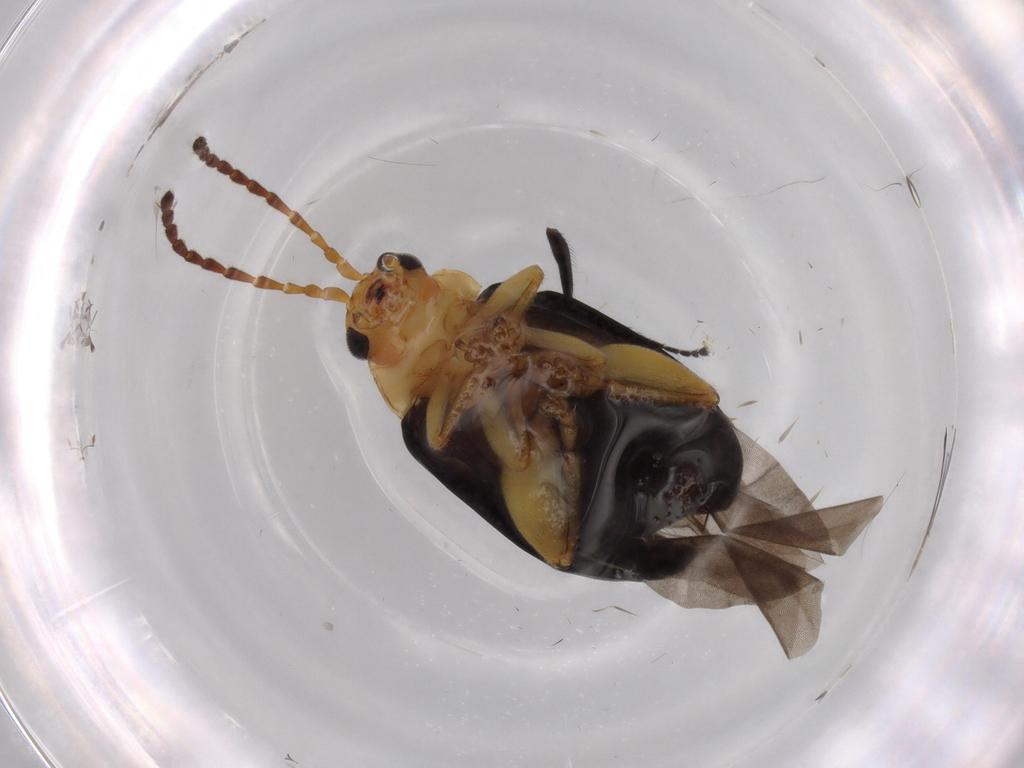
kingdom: Animalia
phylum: Arthropoda
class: Insecta
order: Coleoptera
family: Chrysomelidae
